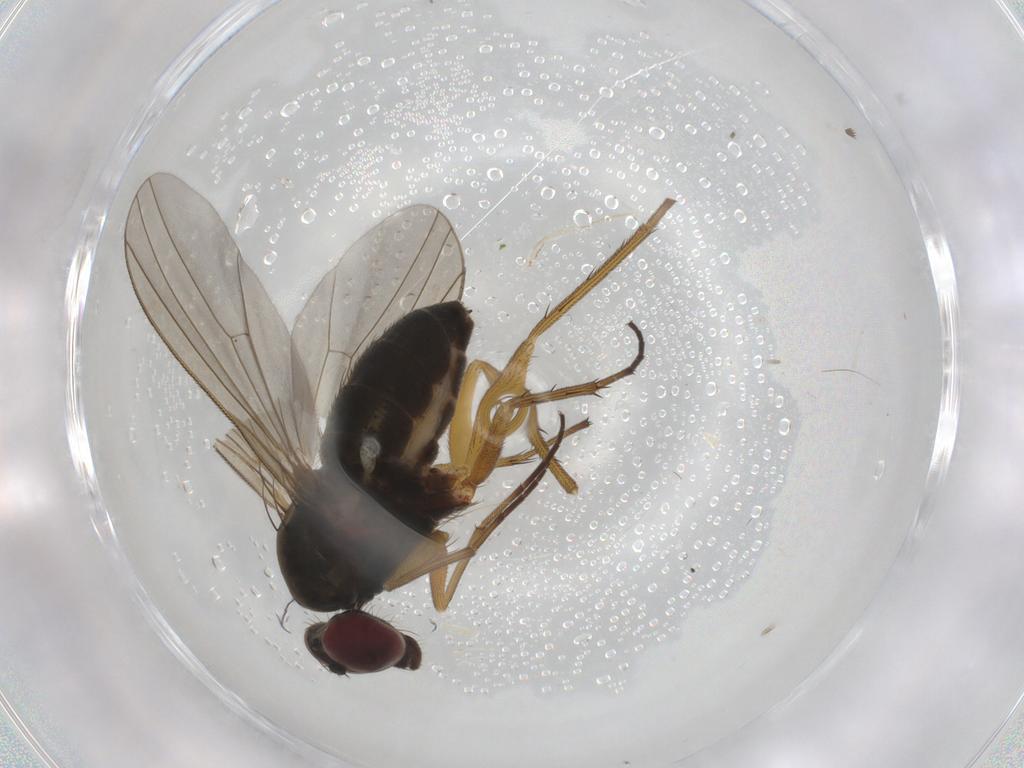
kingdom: Animalia
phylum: Arthropoda
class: Insecta
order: Diptera
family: Dolichopodidae
